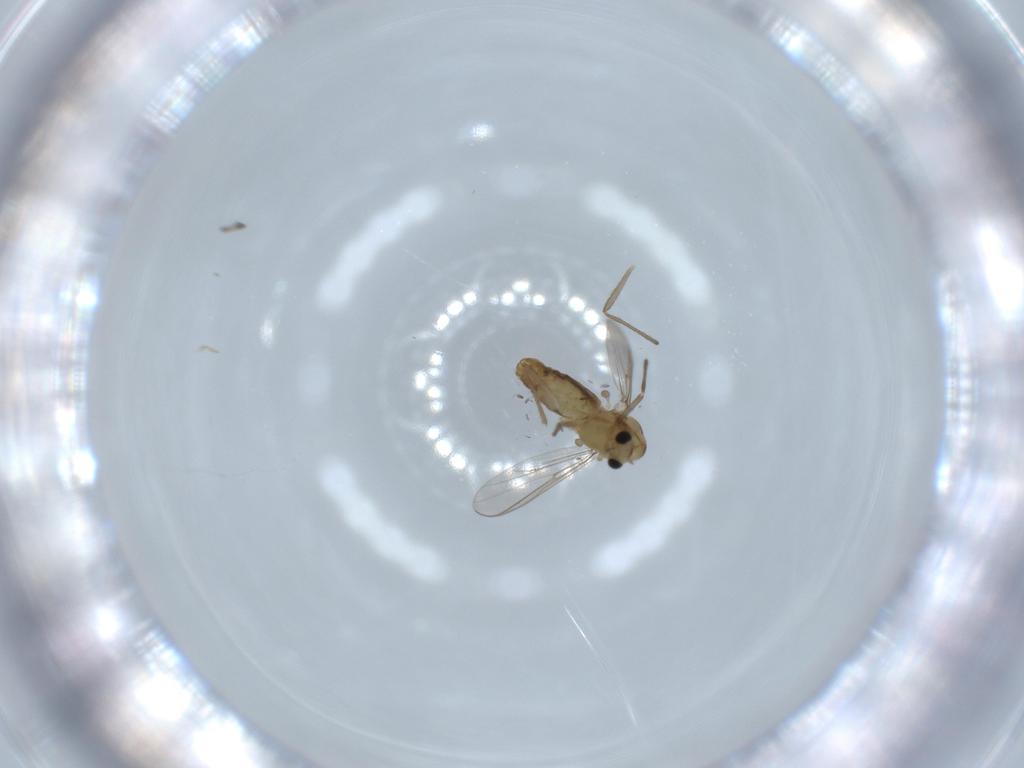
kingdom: Animalia
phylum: Arthropoda
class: Insecta
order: Diptera
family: Chironomidae
